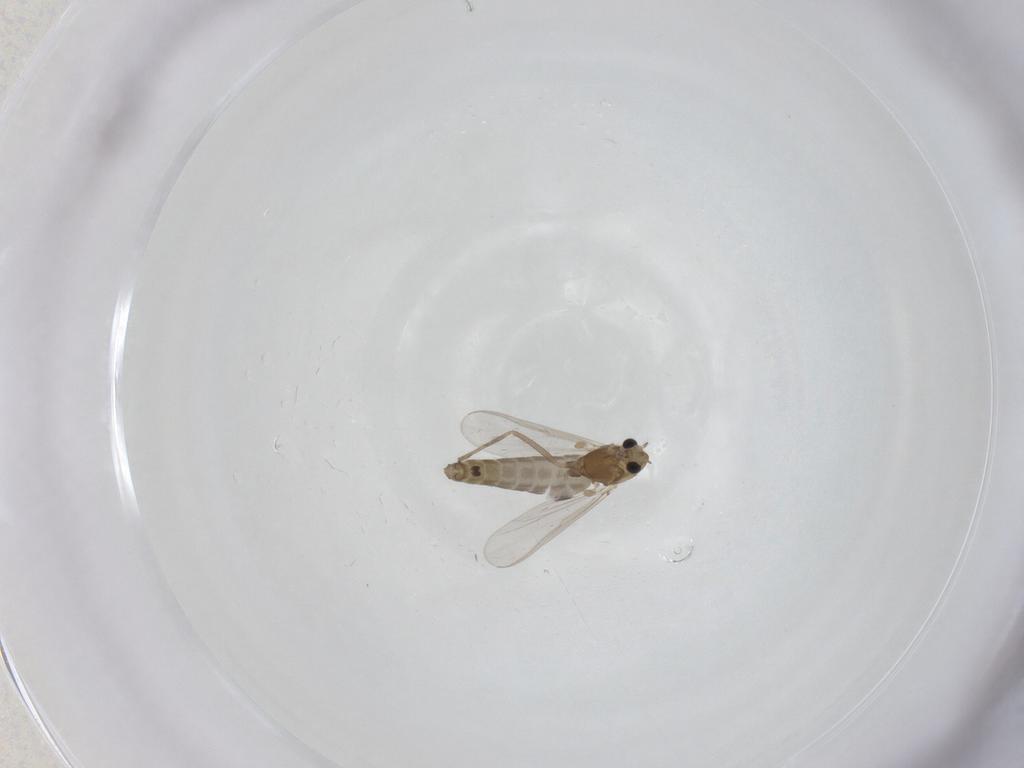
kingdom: Animalia
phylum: Arthropoda
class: Insecta
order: Diptera
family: Chironomidae
